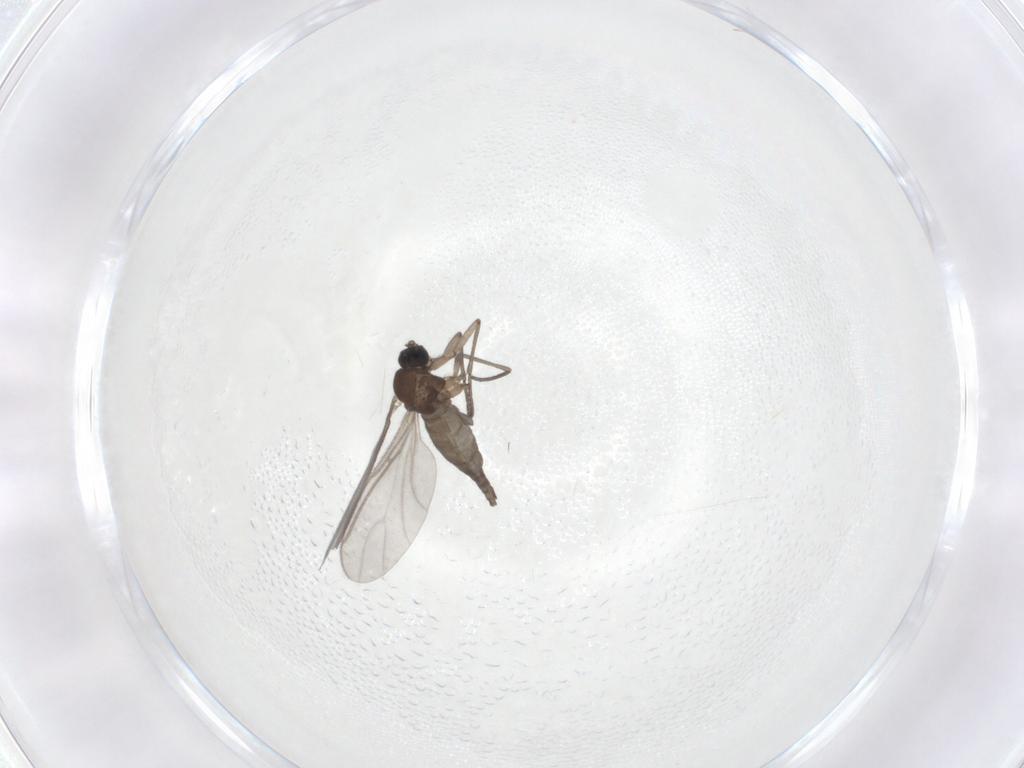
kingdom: Animalia
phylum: Arthropoda
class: Insecta
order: Diptera
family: Sciaridae
